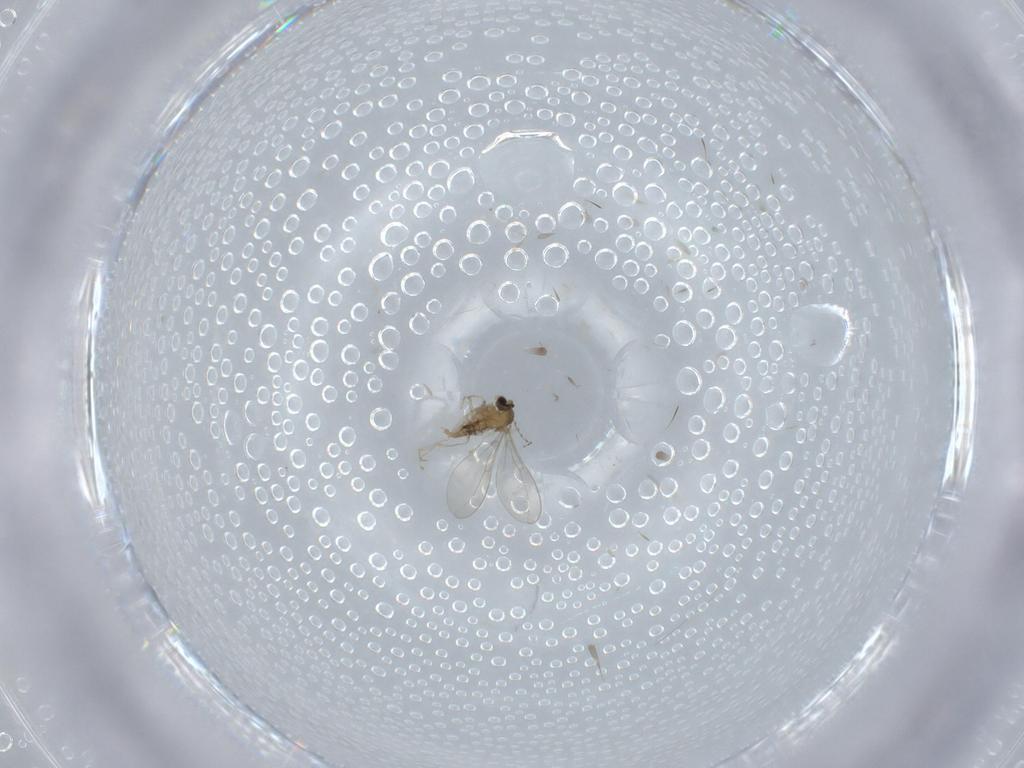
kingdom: Animalia
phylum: Arthropoda
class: Insecta
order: Diptera
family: Cecidomyiidae
